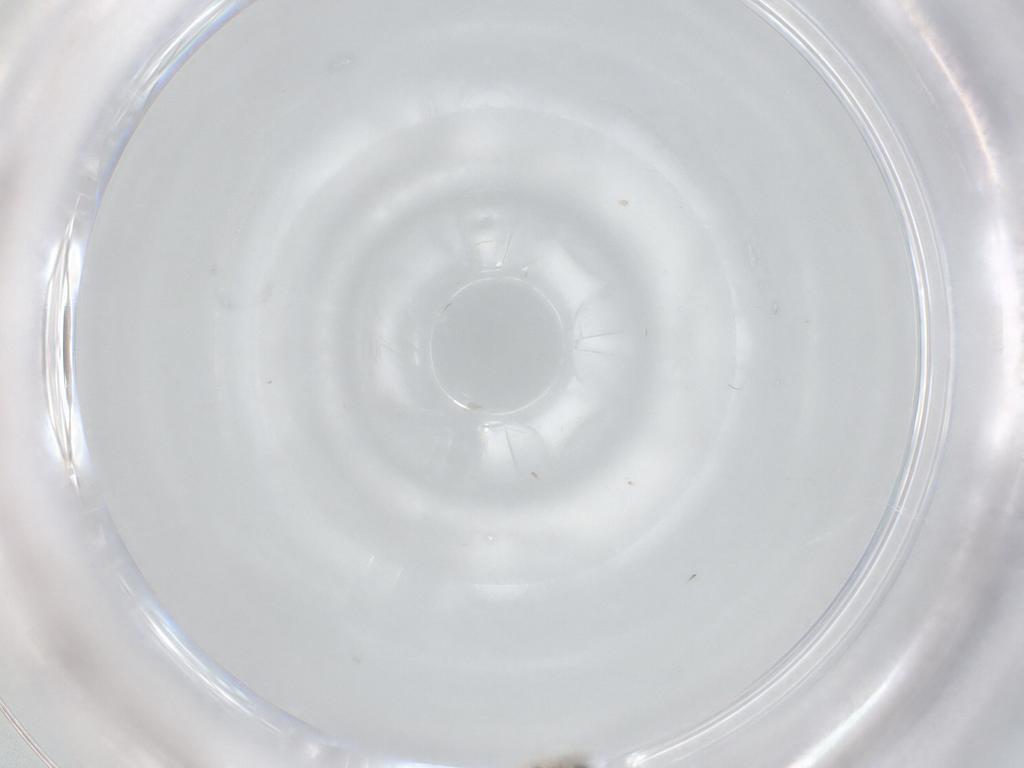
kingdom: Animalia
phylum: Arthropoda
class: Insecta
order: Diptera
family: Cecidomyiidae
